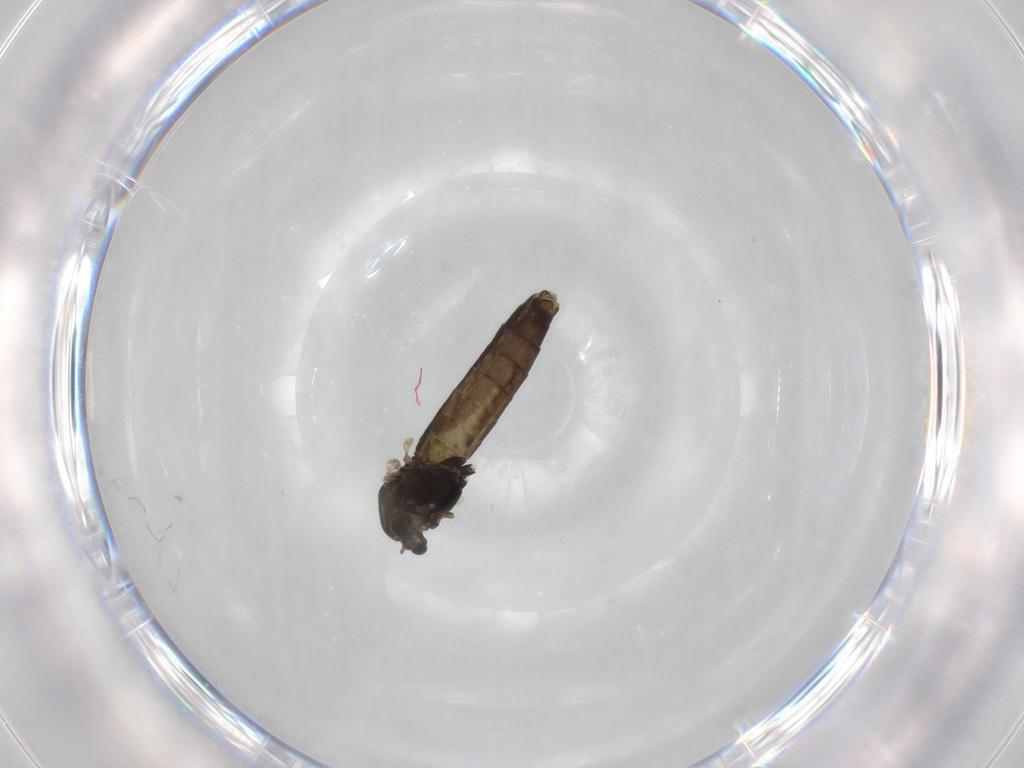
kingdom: Animalia
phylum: Arthropoda
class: Insecta
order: Diptera
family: Chironomidae
